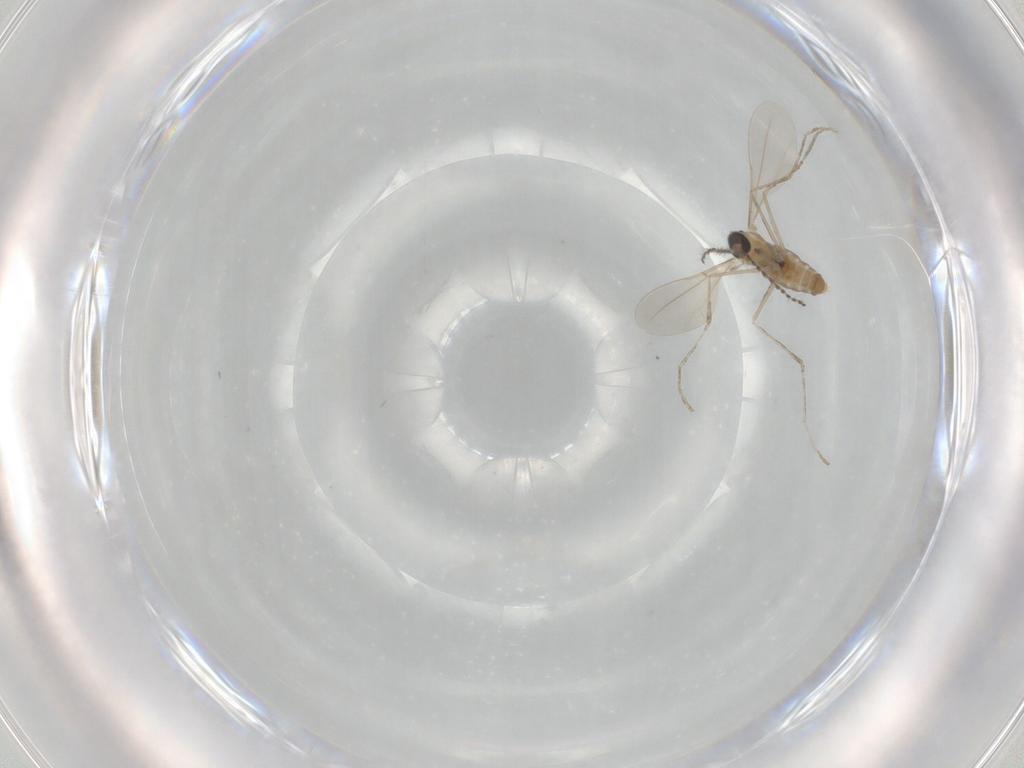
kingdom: Animalia
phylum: Arthropoda
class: Insecta
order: Diptera
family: Cecidomyiidae
